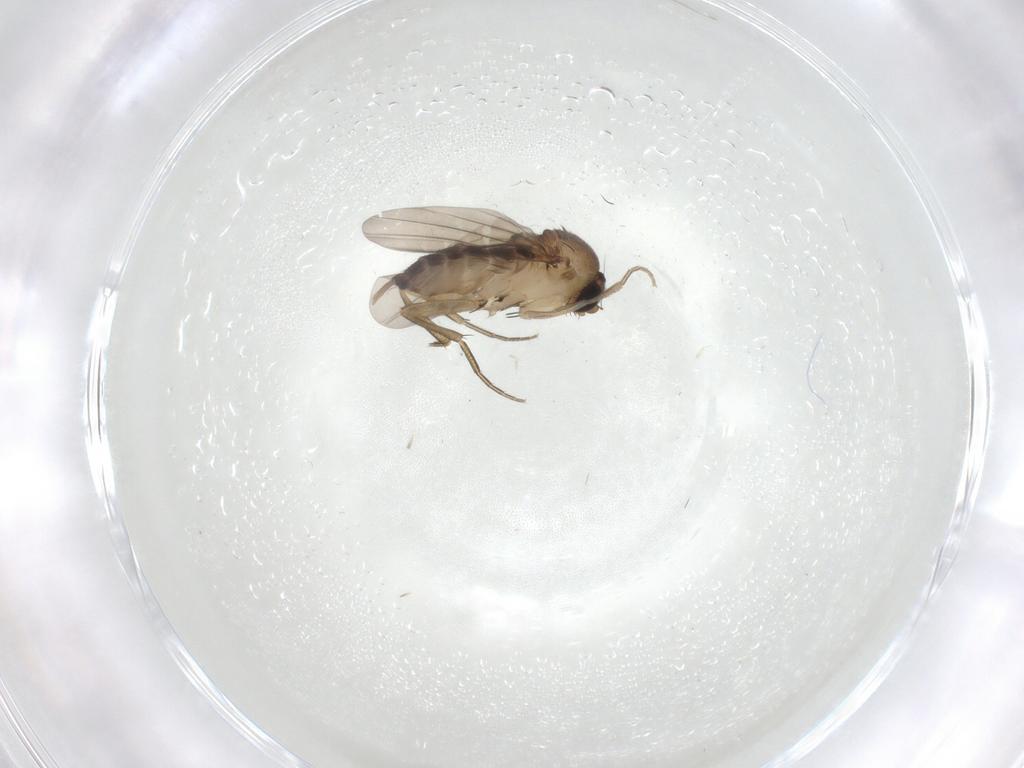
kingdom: Animalia
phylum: Arthropoda
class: Insecta
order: Diptera
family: Phoridae
